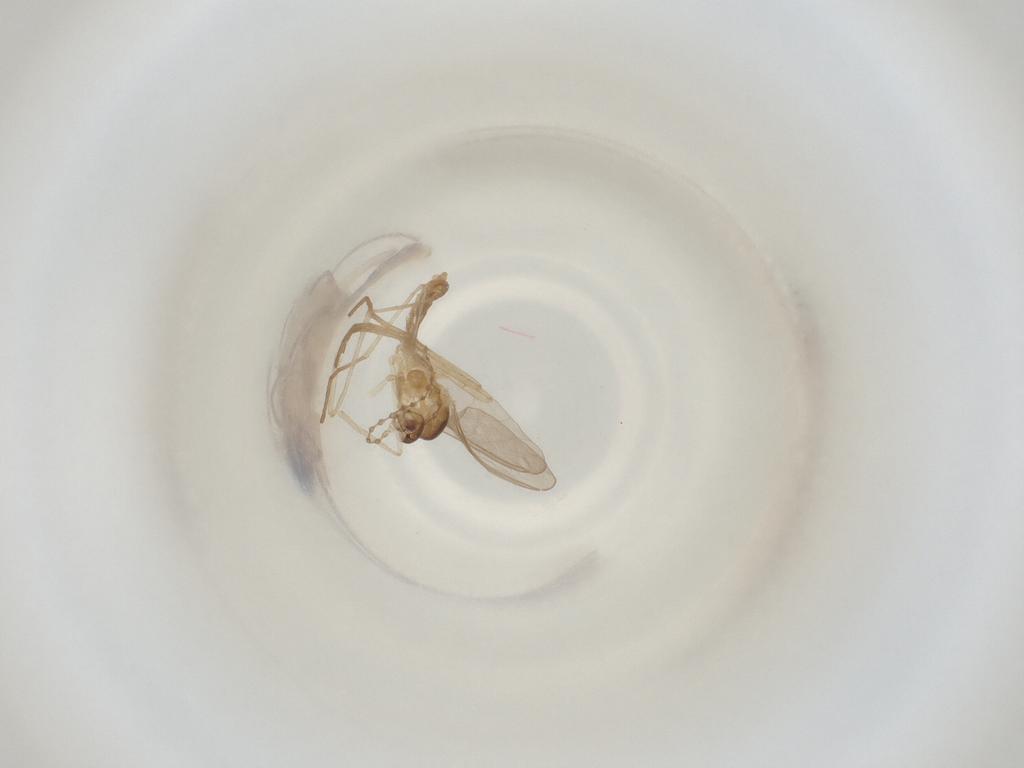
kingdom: Animalia
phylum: Arthropoda
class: Insecta
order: Diptera
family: Cecidomyiidae
